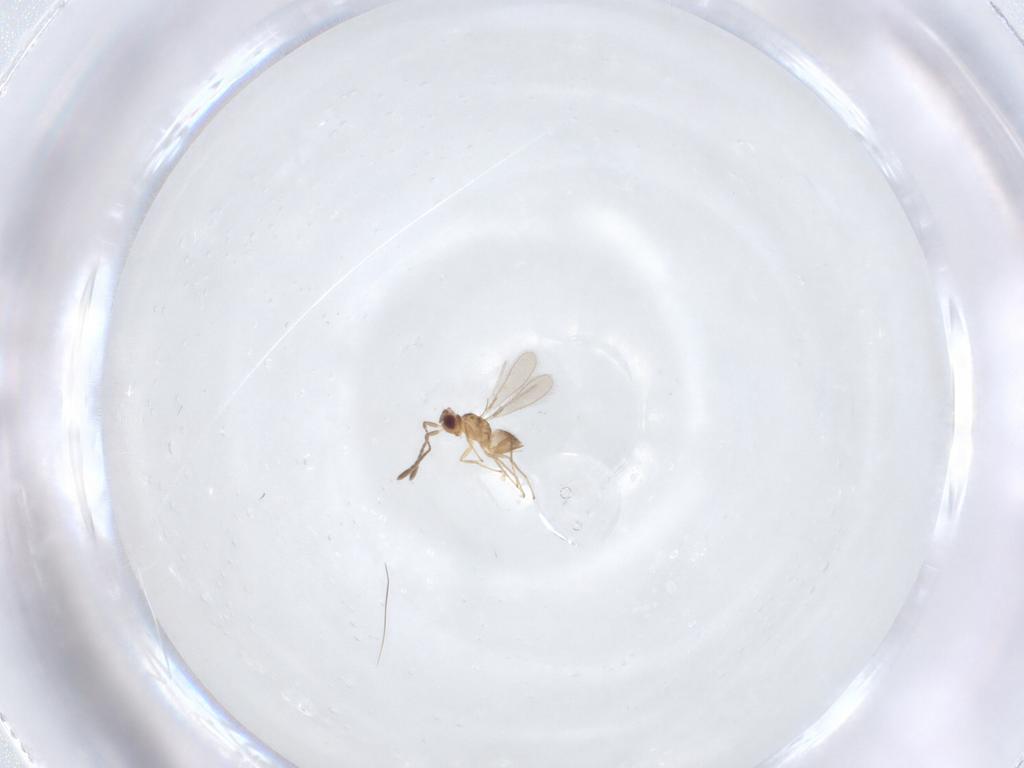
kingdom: Animalia
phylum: Arthropoda
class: Insecta
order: Hymenoptera
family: Mymaridae
